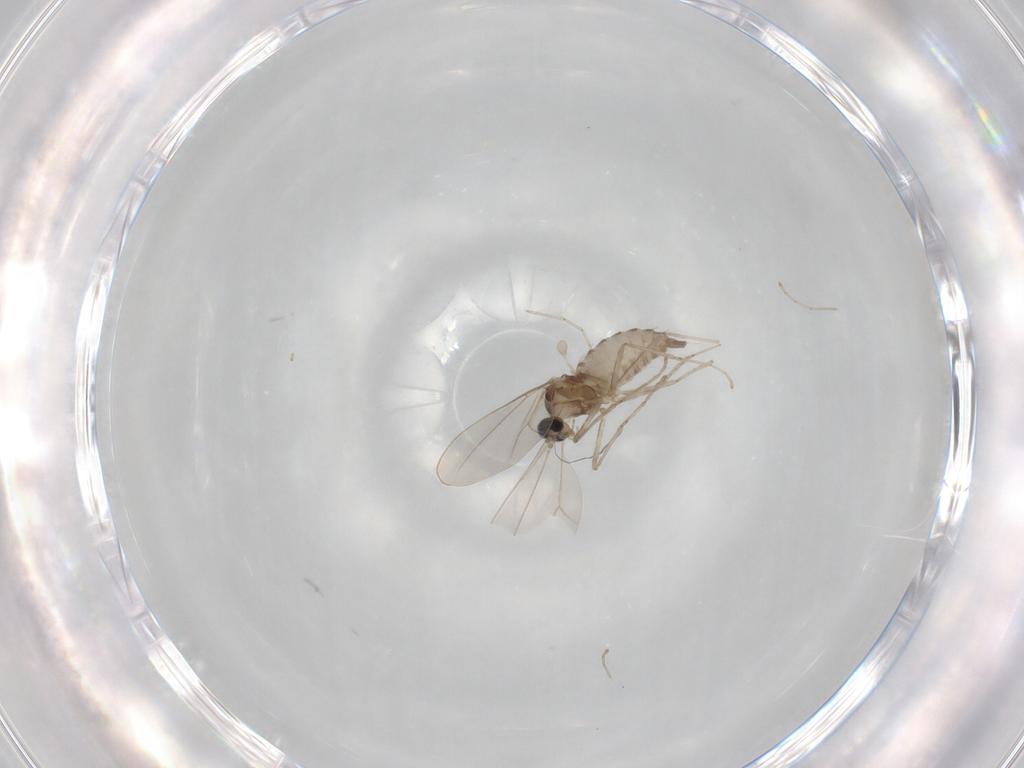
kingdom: Animalia
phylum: Arthropoda
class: Insecta
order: Diptera
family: Cecidomyiidae
